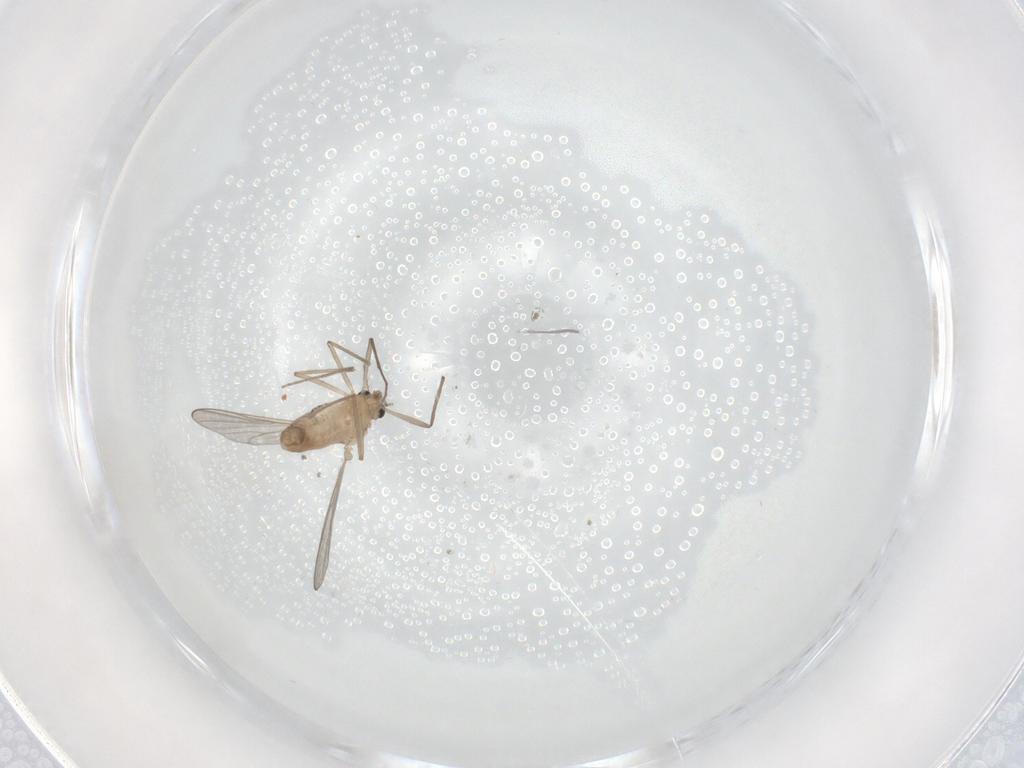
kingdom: Animalia
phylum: Arthropoda
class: Insecta
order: Diptera
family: Chironomidae
